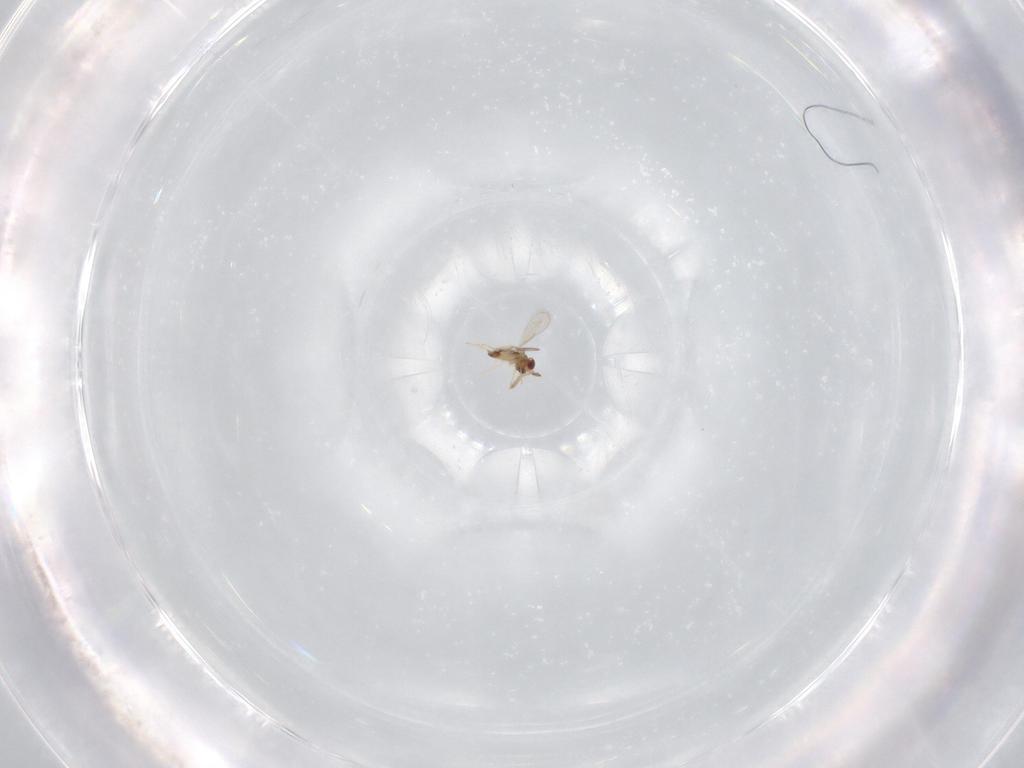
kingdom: Animalia
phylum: Arthropoda
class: Insecta
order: Hymenoptera
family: Aphelinidae
